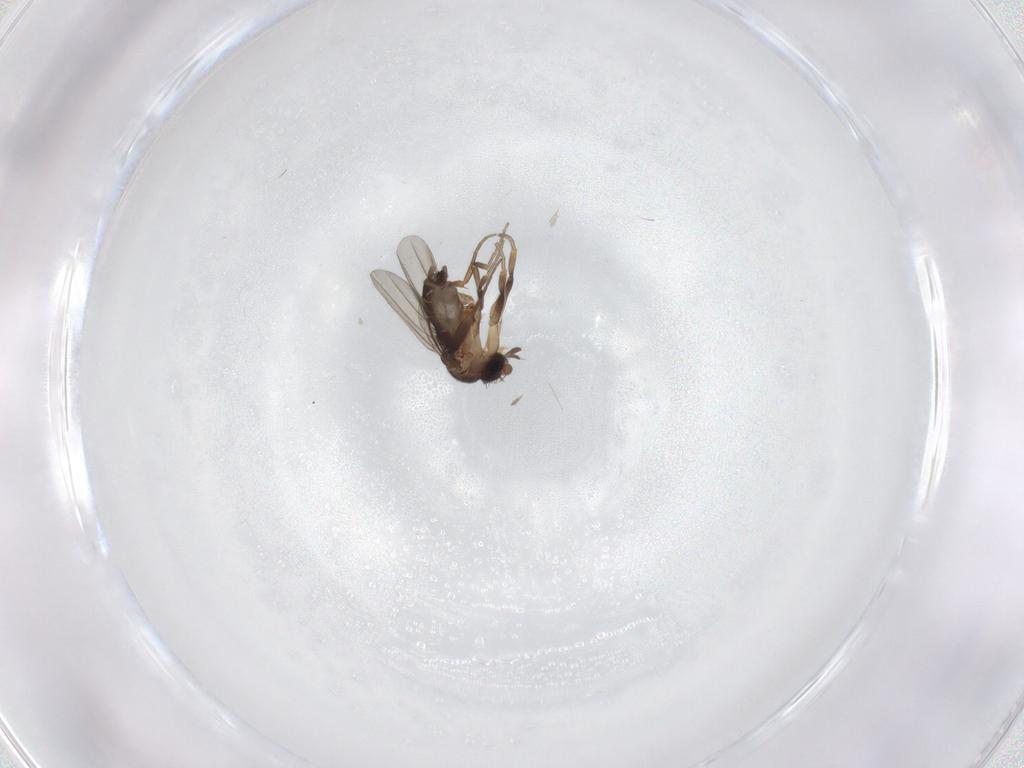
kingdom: Animalia
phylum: Arthropoda
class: Insecta
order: Diptera
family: Phoridae
